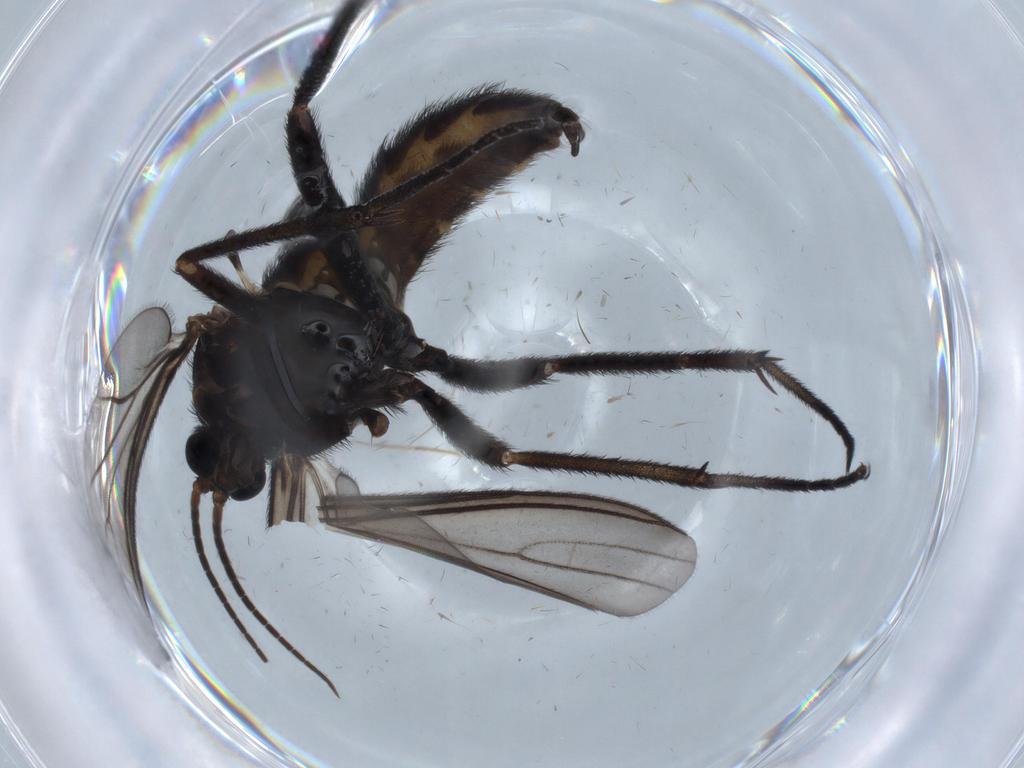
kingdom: Animalia
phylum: Arthropoda
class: Insecta
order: Diptera
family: Sciaridae
